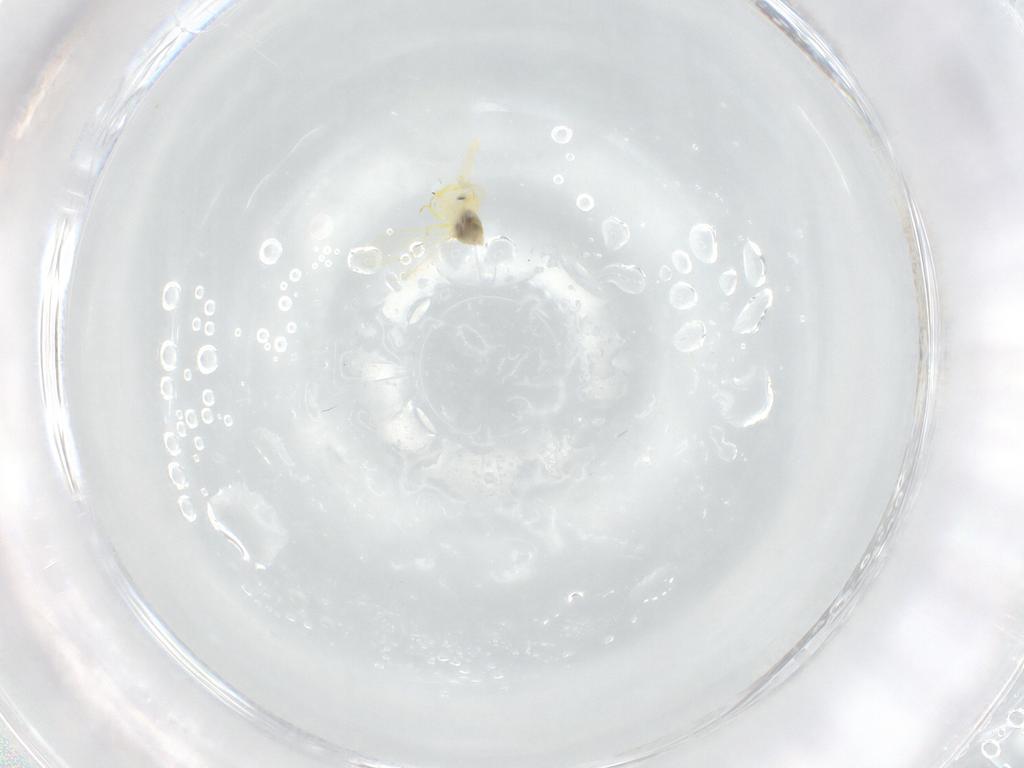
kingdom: Animalia
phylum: Arthropoda
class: Insecta
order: Hemiptera
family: Aleyrodidae
